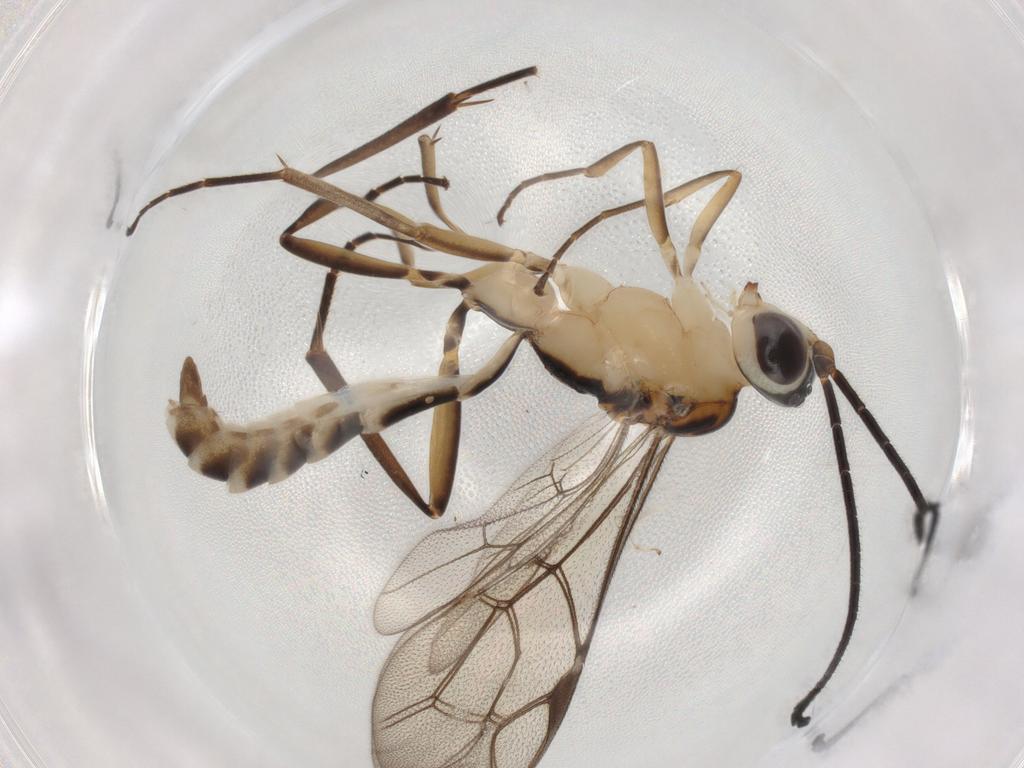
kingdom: Animalia
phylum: Arthropoda
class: Insecta
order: Hymenoptera
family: Ichneumonidae
